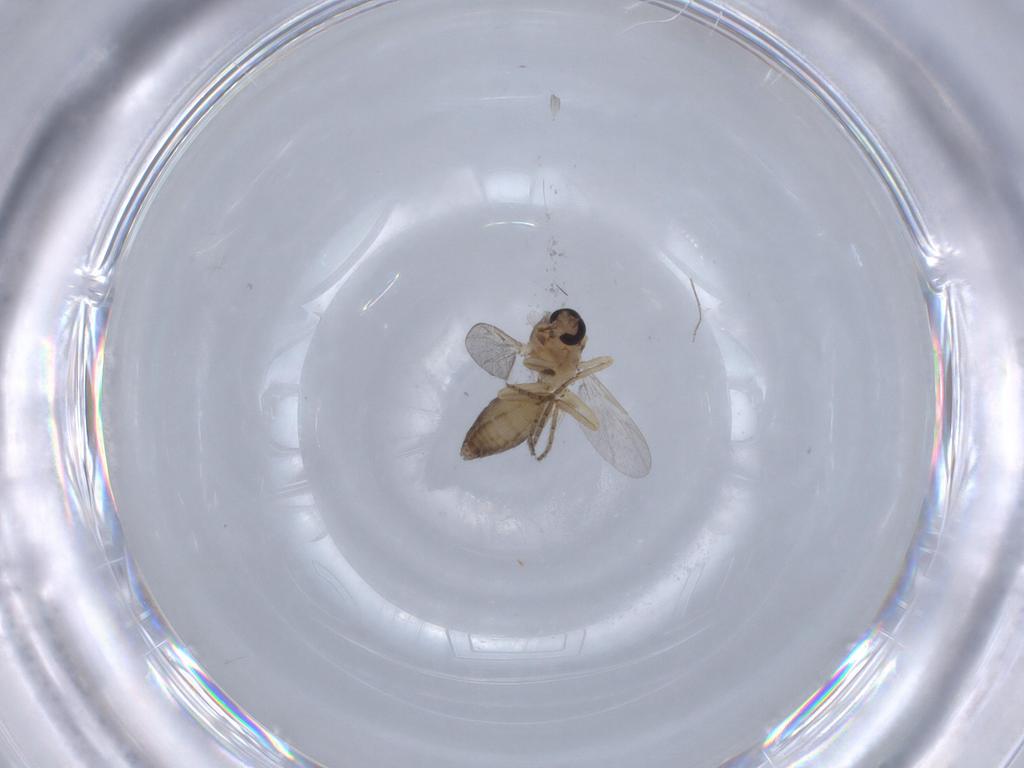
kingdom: Animalia
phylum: Arthropoda
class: Insecta
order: Diptera
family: Ceratopogonidae
